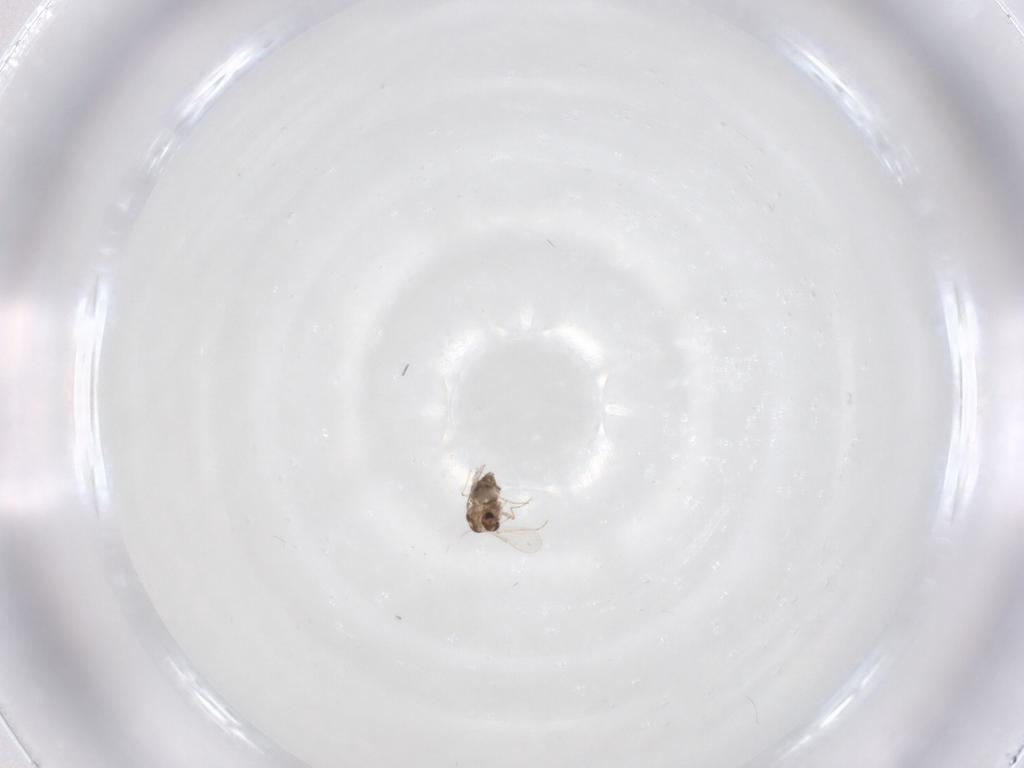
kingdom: Animalia
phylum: Arthropoda
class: Insecta
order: Diptera
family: Chironomidae
